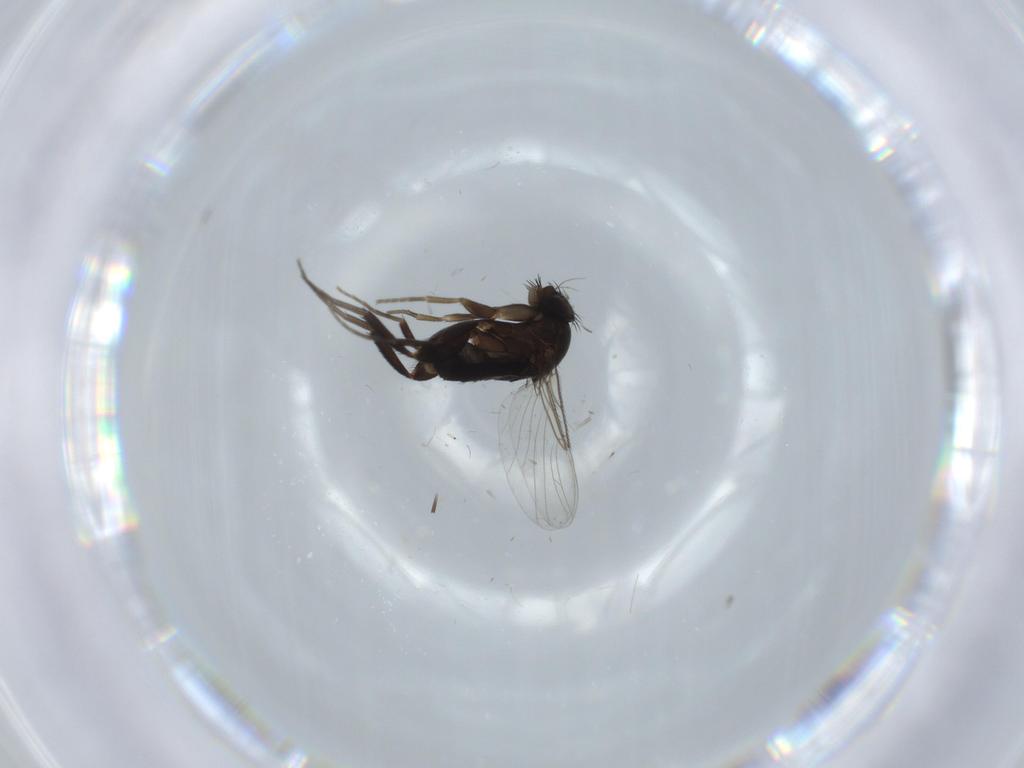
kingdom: Animalia
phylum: Arthropoda
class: Insecta
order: Diptera
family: Phoridae
